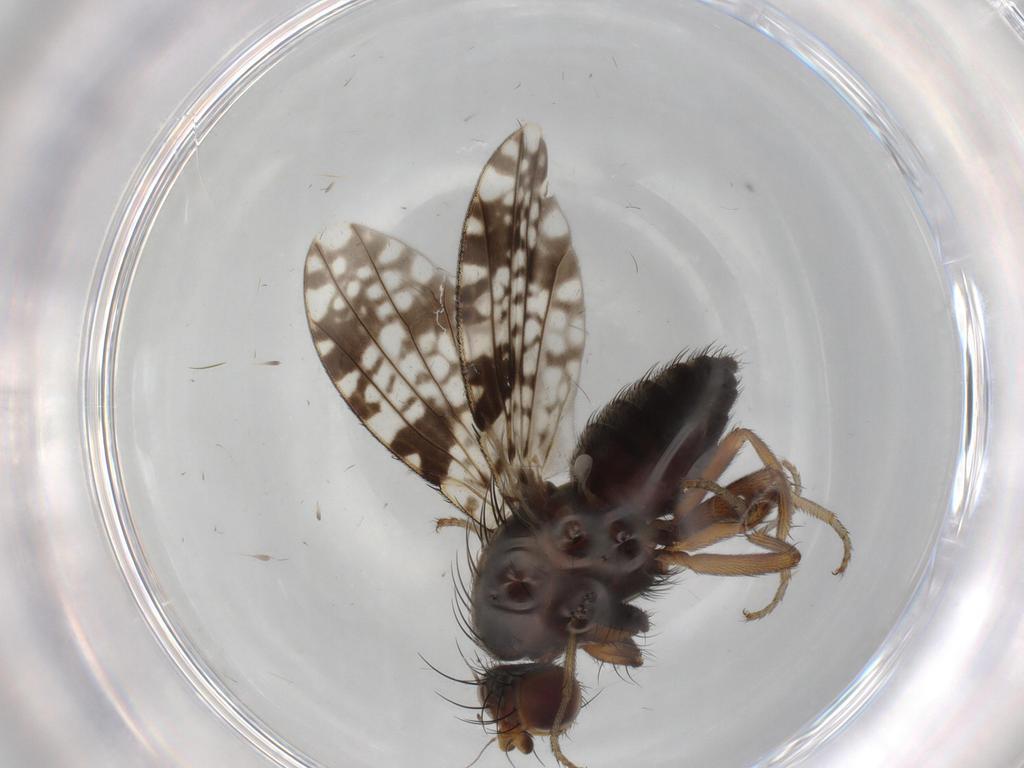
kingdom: Animalia
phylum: Arthropoda
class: Insecta
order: Diptera
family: Tephritidae
